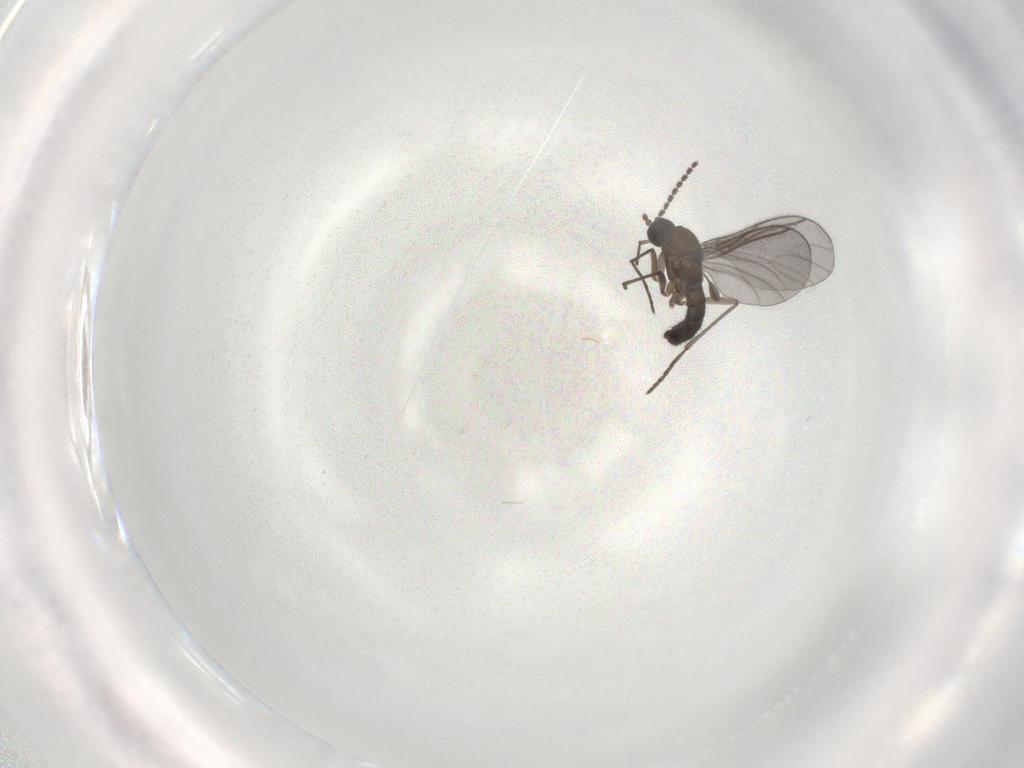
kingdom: Animalia
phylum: Arthropoda
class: Insecta
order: Diptera
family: Sciaridae
